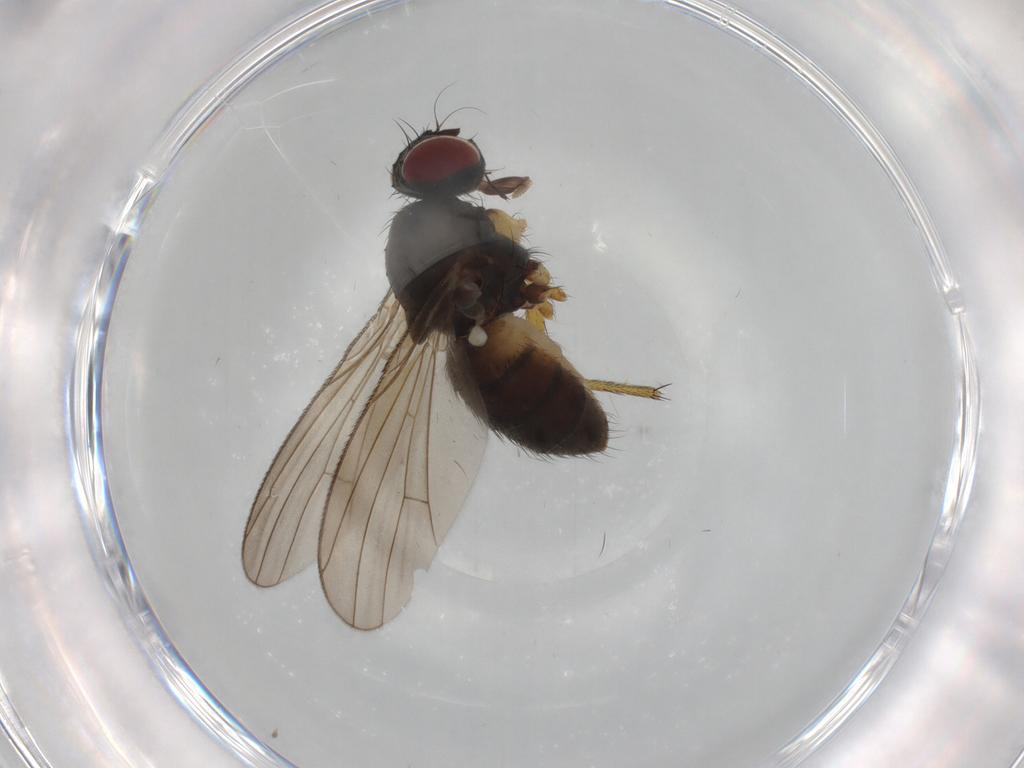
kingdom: Animalia
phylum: Arthropoda
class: Insecta
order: Diptera
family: Muscidae
